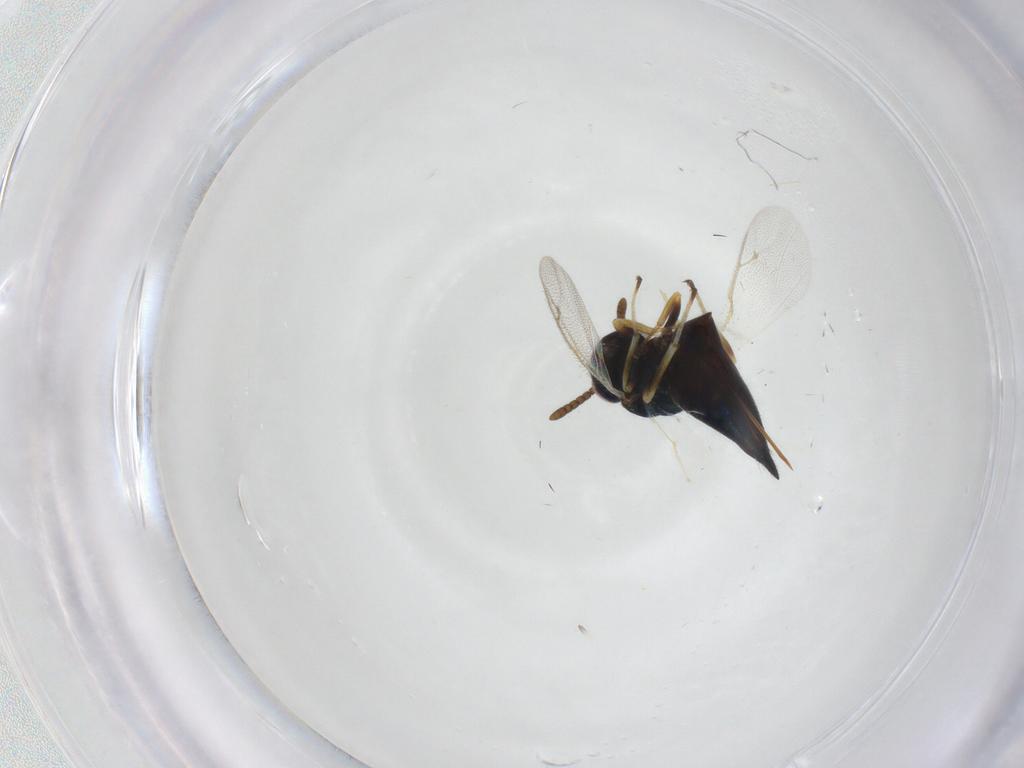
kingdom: Animalia
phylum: Arthropoda
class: Insecta
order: Hymenoptera
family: Pteromalidae
